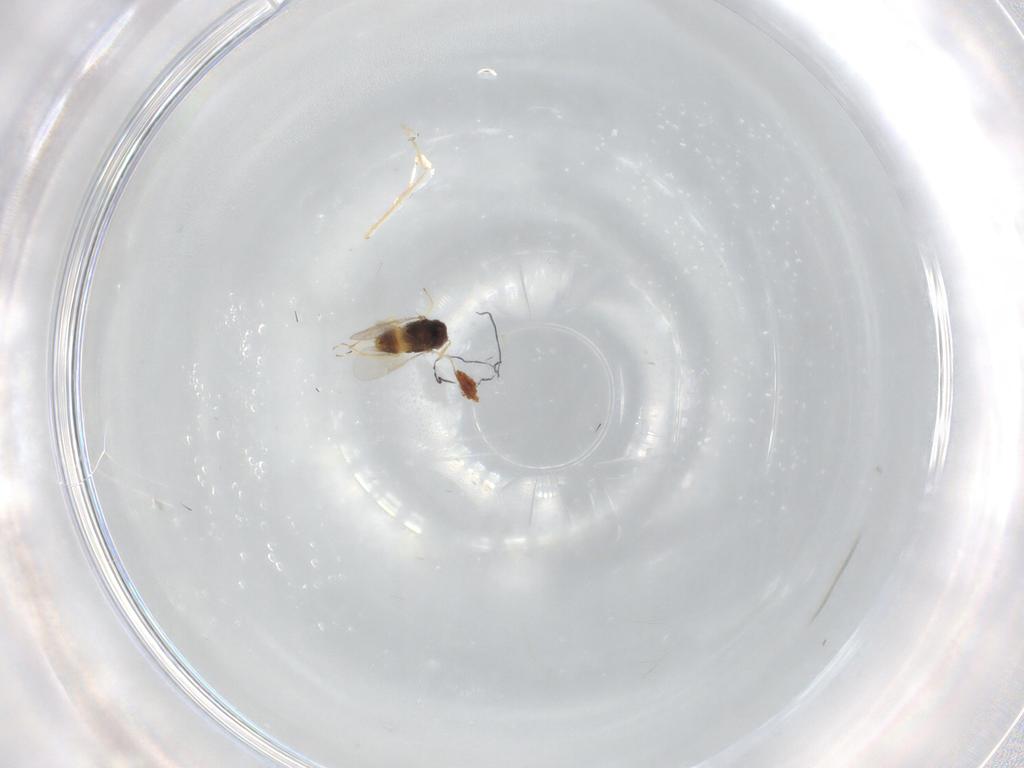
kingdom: Animalia
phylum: Arthropoda
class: Insecta
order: Hymenoptera
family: Aphelinidae
